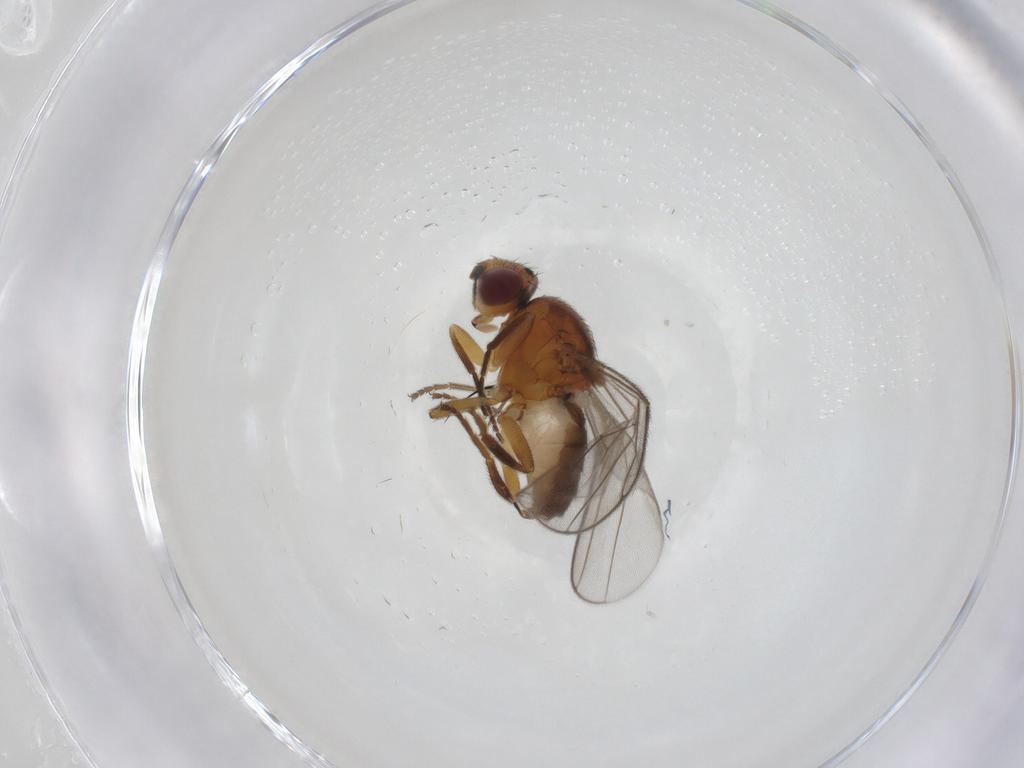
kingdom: Animalia
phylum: Arthropoda
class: Insecta
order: Diptera
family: Chloropidae
